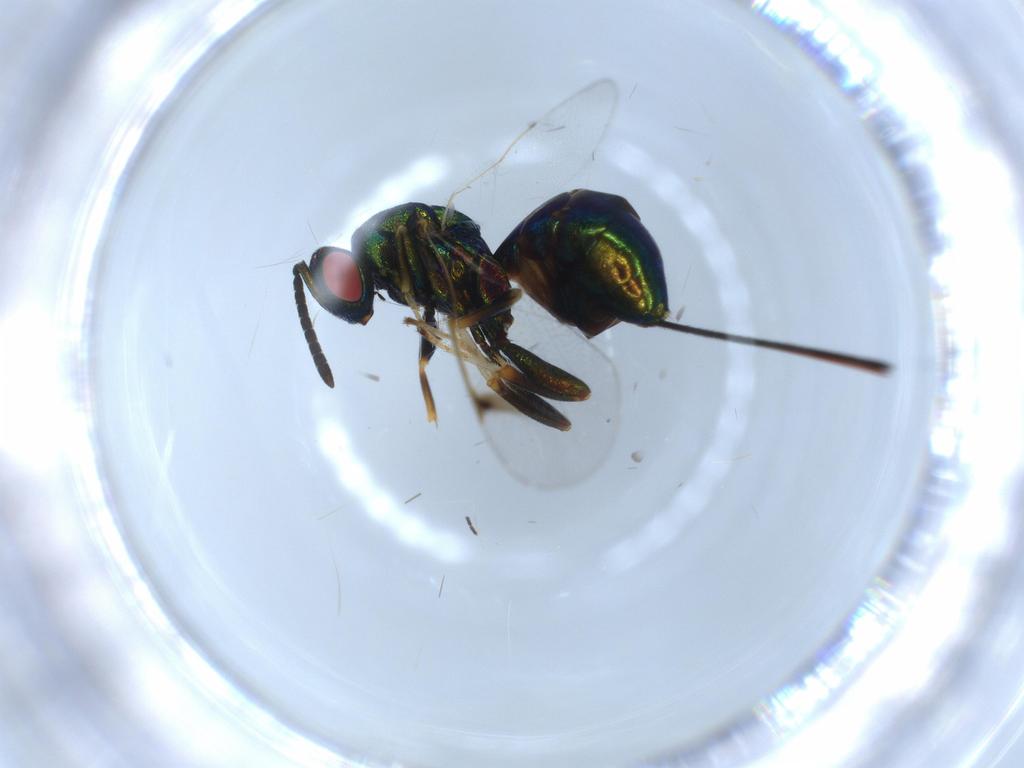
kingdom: Animalia
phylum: Arthropoda
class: Insecta
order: Hymenoptera
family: Torymidae
